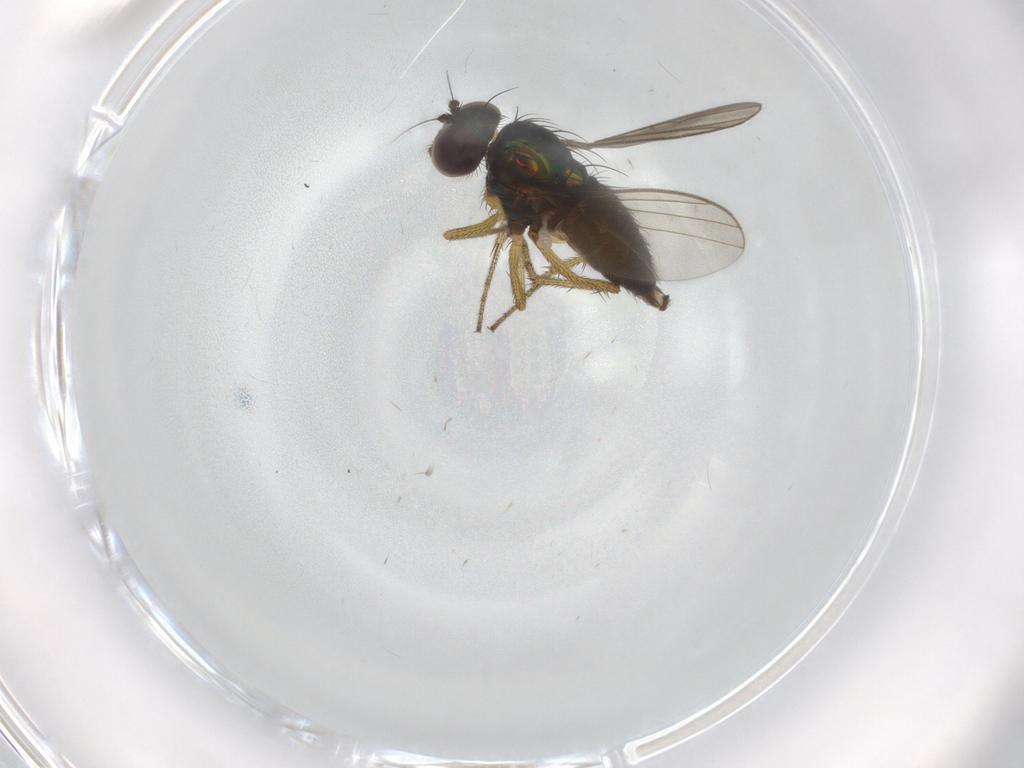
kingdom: Animalia
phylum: Arthropoda
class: Insecta
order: Diptera
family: Dolichopodidae
